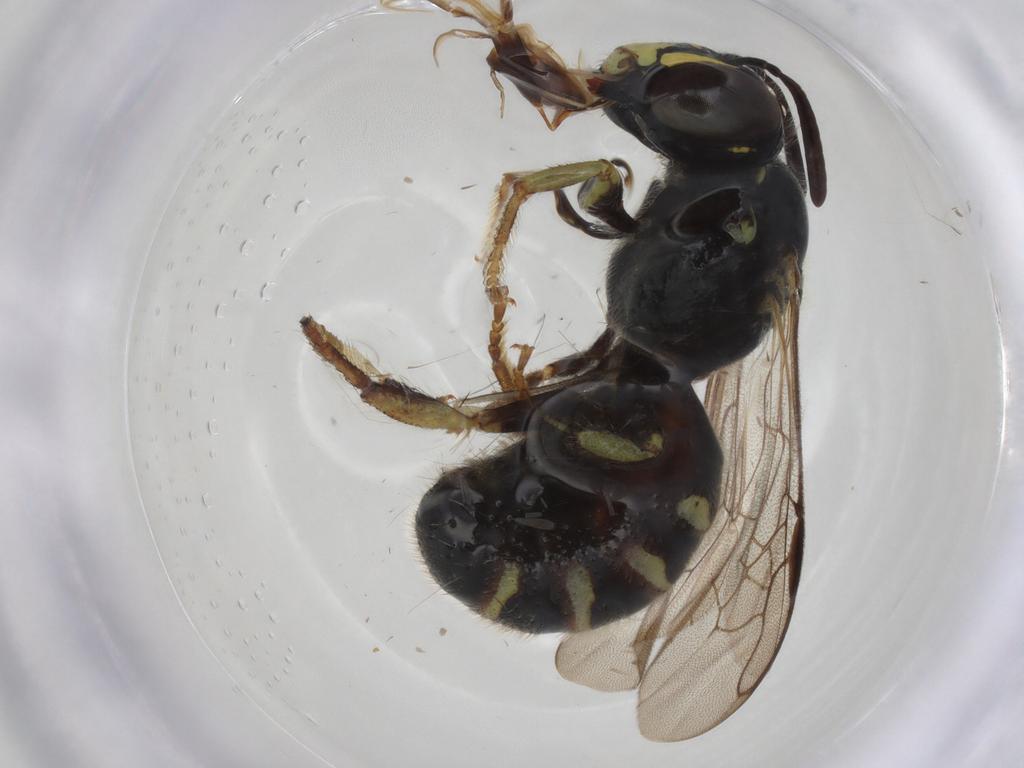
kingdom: Animalia
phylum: Arthropoda
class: Insecta
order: Hymenoptera
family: Apidae
